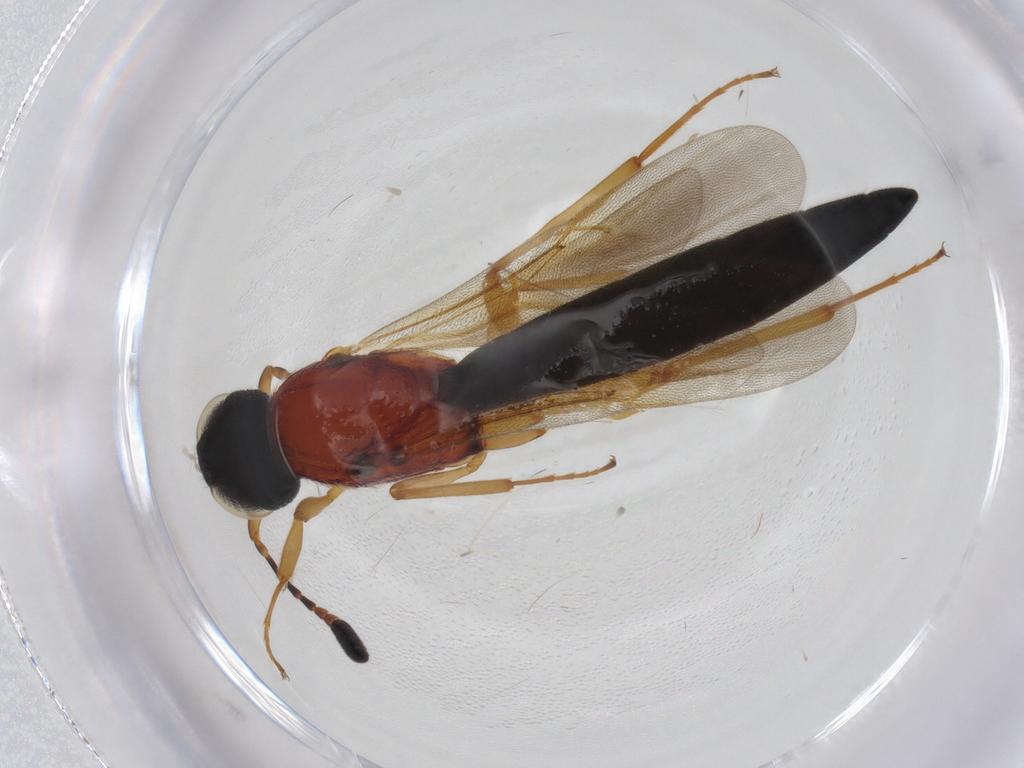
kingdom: Animalia
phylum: Arthropoda
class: Insecta
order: Hymenoptera
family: Scelionidae
